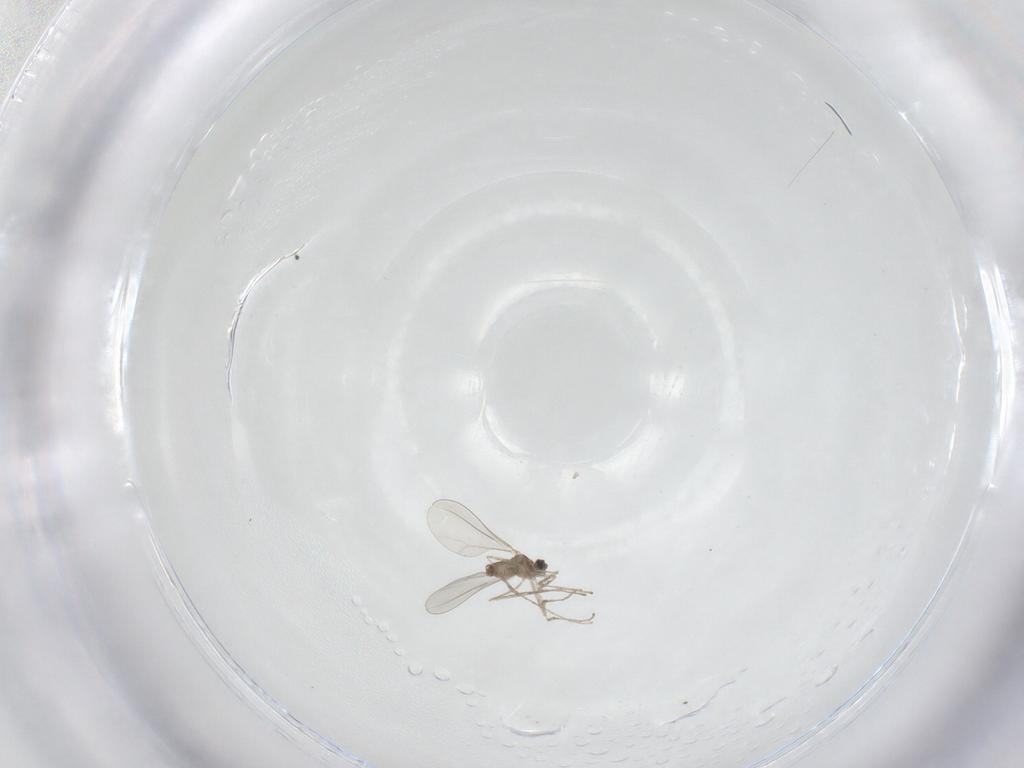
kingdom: Animalia
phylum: Arthropoda
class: Insecta
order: Diptera
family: Cecidomyiidae
